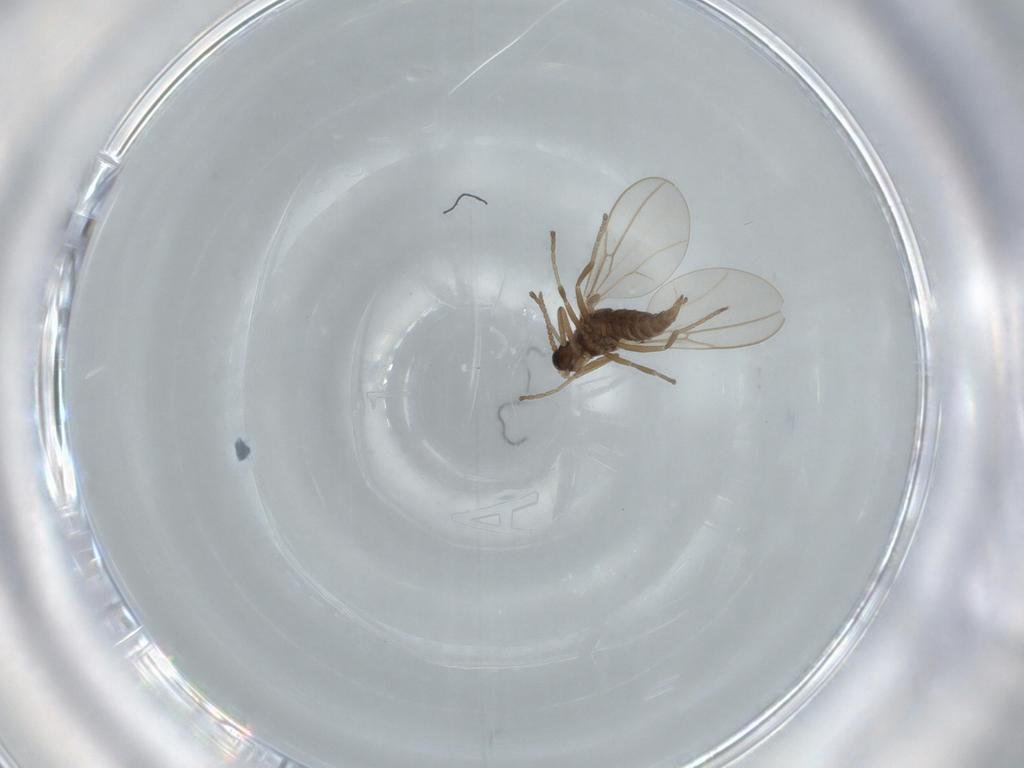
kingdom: Animalia
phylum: Arthropoda
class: Insecta
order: Diptera
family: Cecidomyiidae
